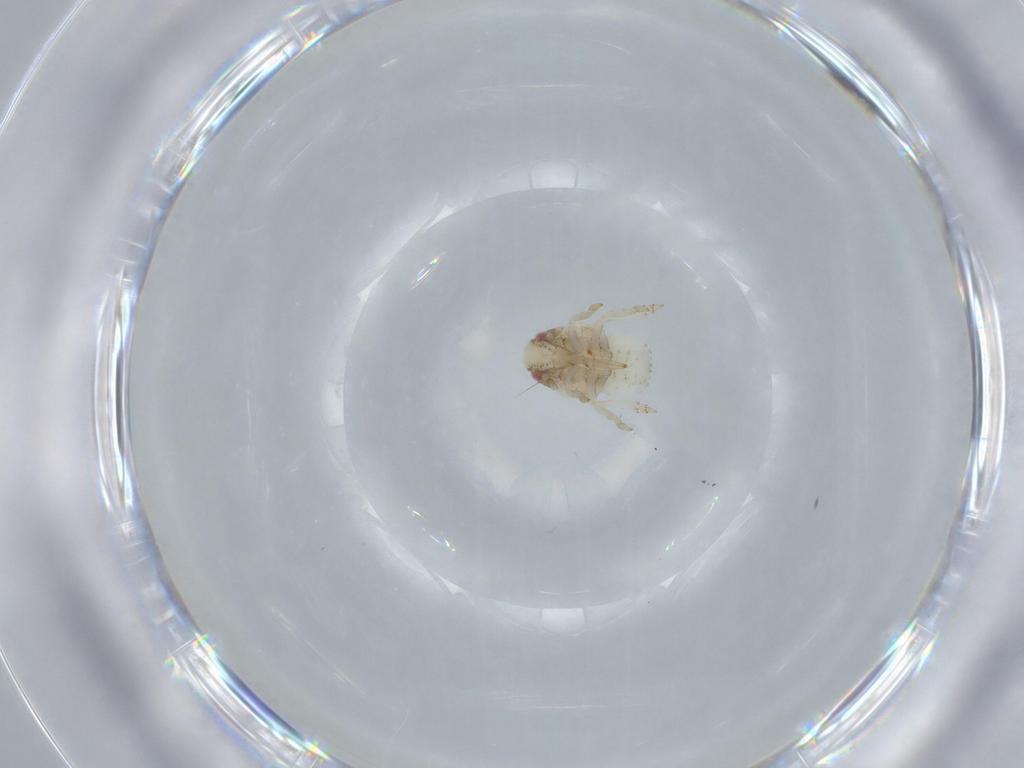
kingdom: Animalia
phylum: Arthropoda
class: Insecta
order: Hemiptera
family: Acanaloniidae
